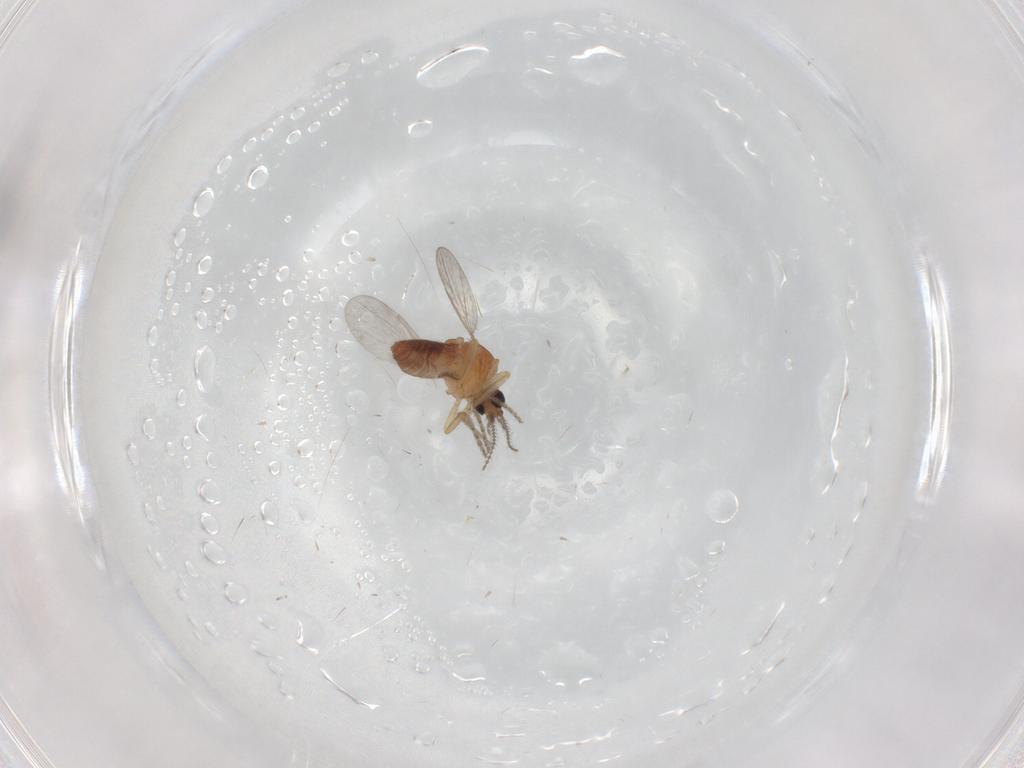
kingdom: Animalia
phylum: Arthropoda
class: Insecta
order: Diptera
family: Ceratopogonidae
